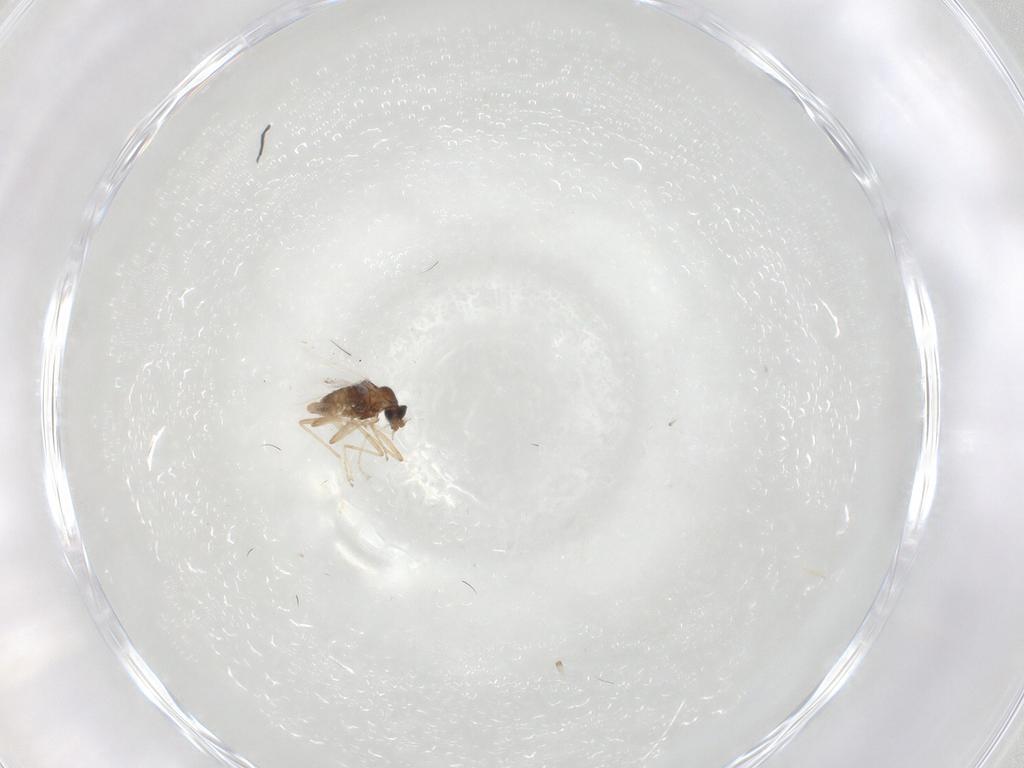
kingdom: Animalia
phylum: Arthropoda
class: Insecta
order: Diptera
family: Cecidomyiidae
